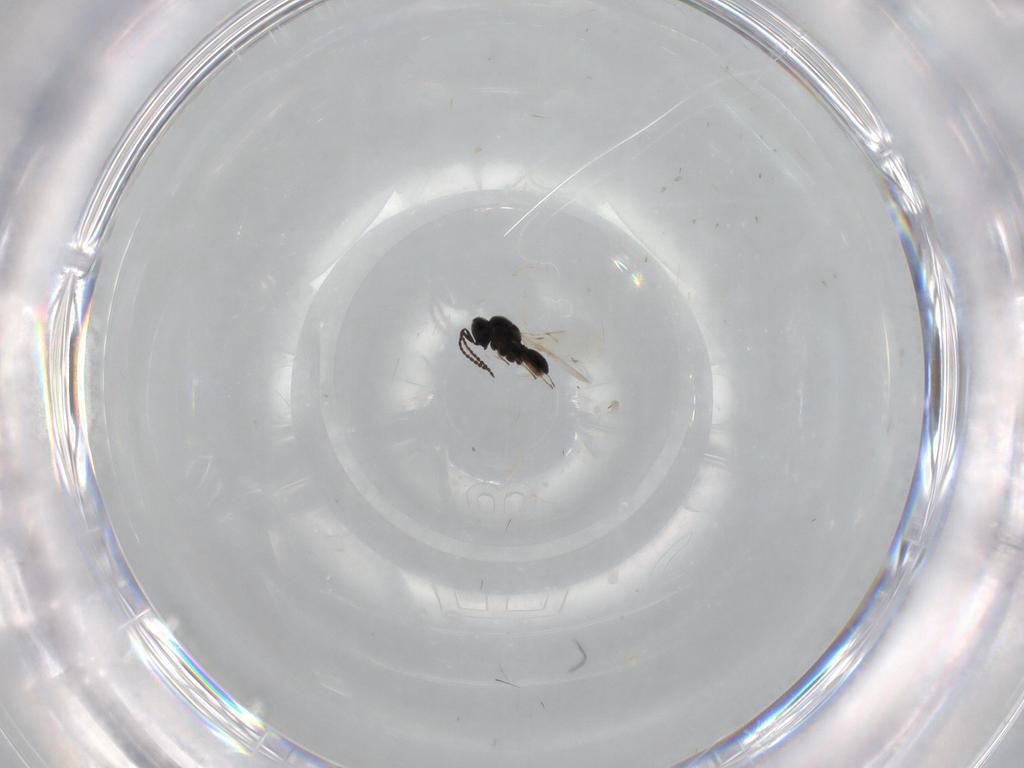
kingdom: Animalia
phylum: Arthropoda
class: Insecta
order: Hymenoptera
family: Scelionidae
